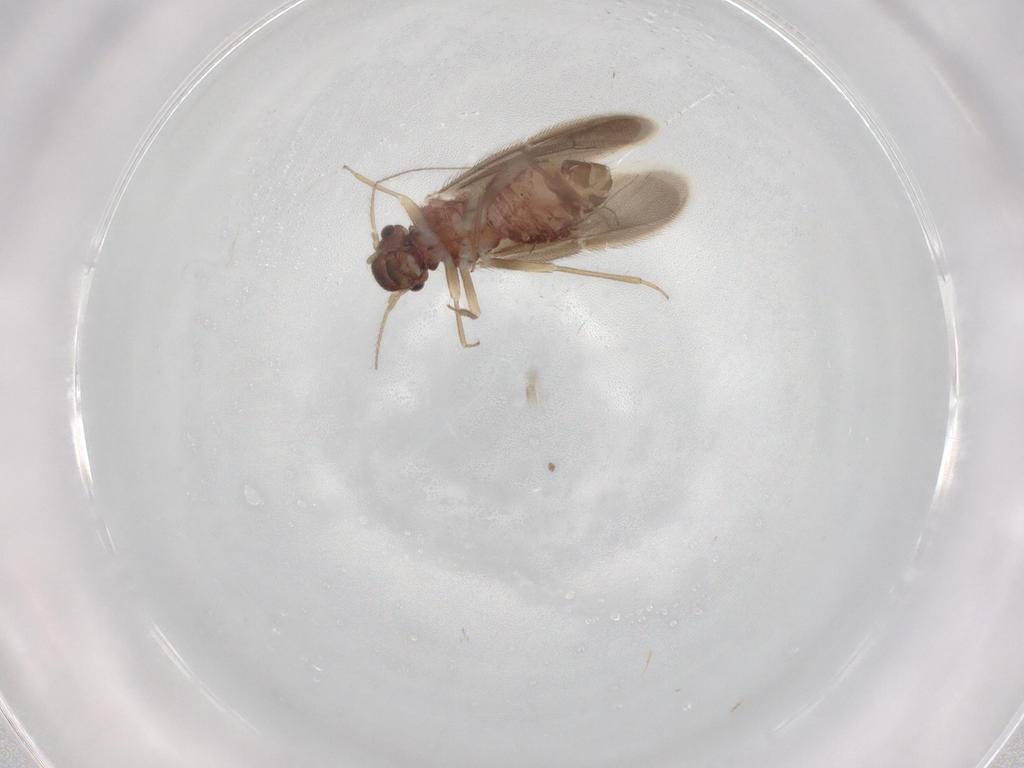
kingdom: Animalia
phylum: Arthropoda
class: Insecta
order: Psocodea
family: Archipsocidae
